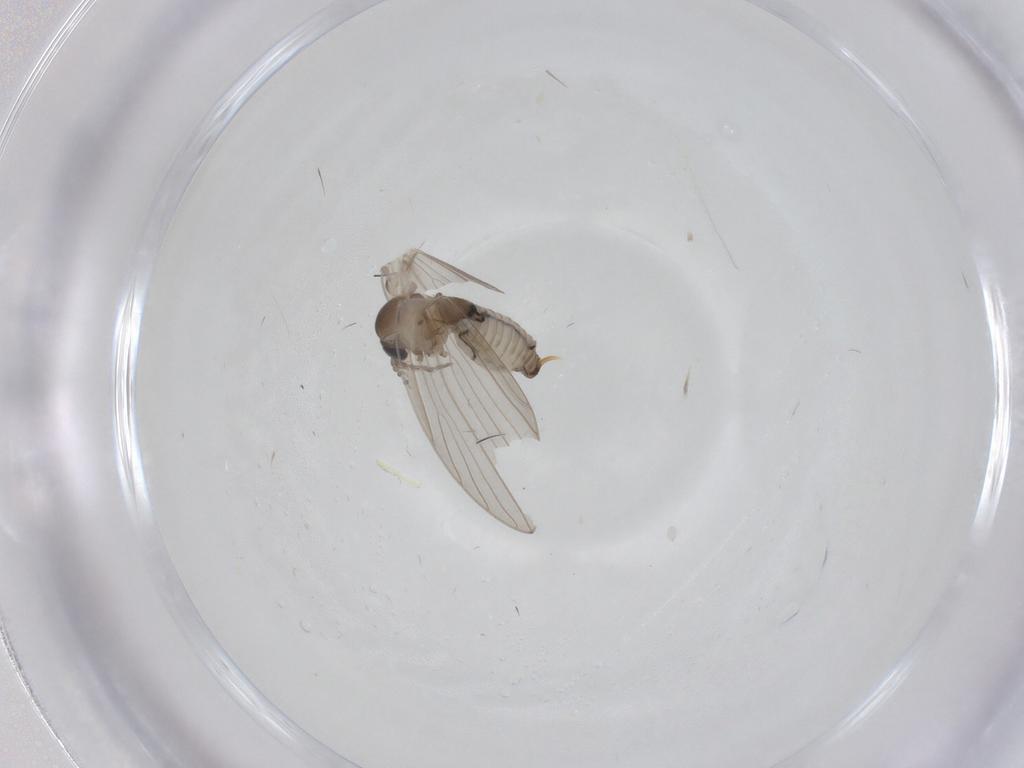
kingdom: Animalia
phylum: Arthropoda
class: Insecta
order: Diptera
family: Psychodidae
